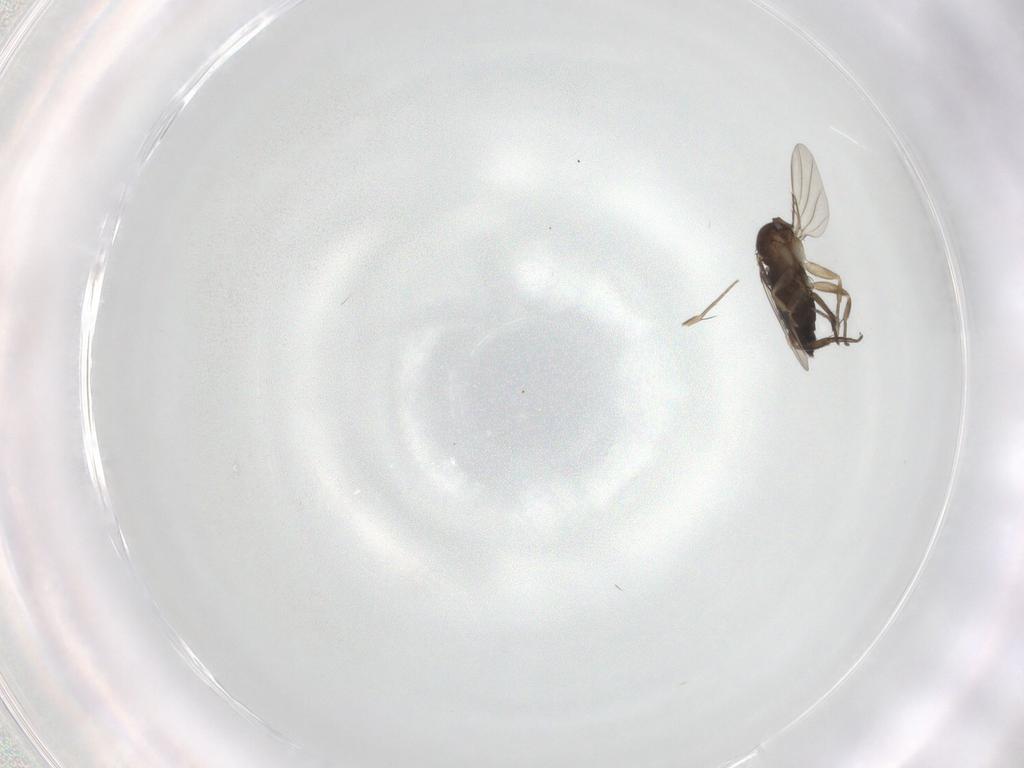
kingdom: Animalia
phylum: Arthropoda
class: Insecta
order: Diptera
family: Phoridae
